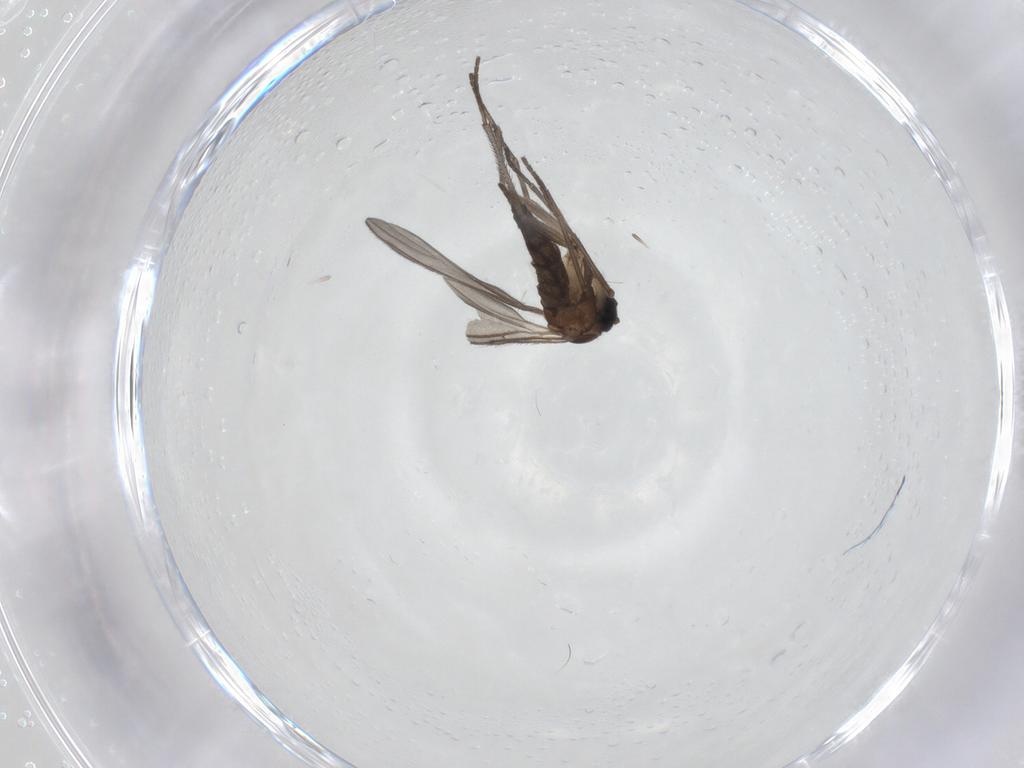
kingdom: Animalia
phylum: Arthropoda
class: Insecta
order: Diptera
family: Sciaridae
